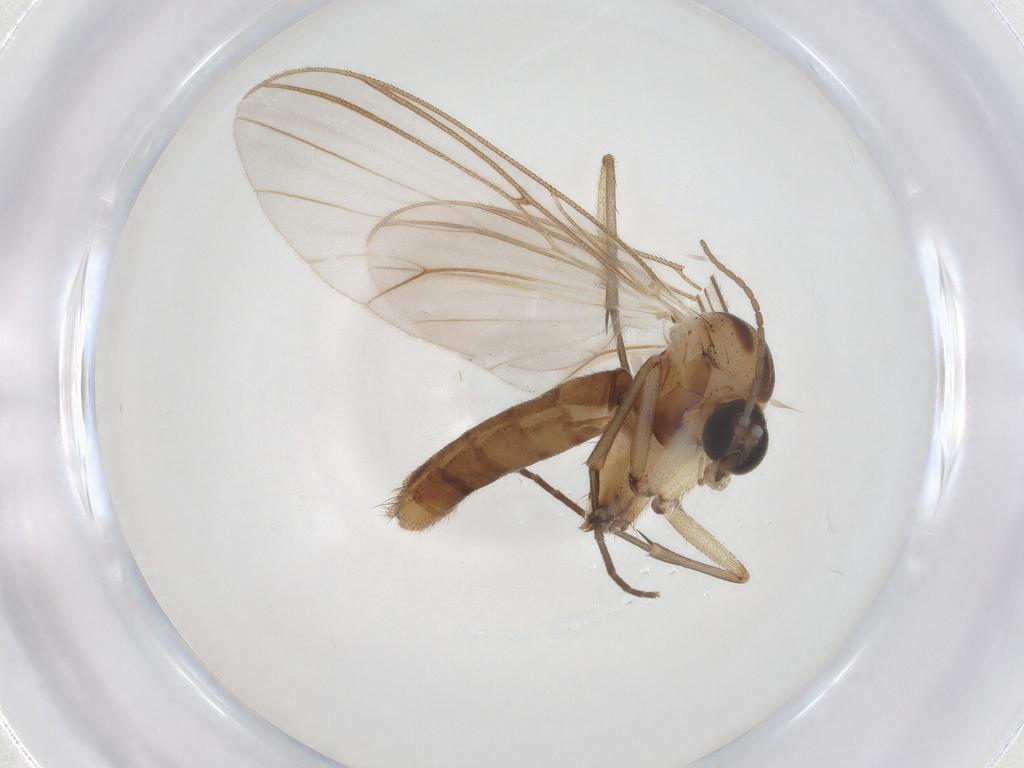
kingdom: Animalia
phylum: Arthropoda
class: Insecta
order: Diptera
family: Mycetophilidae
